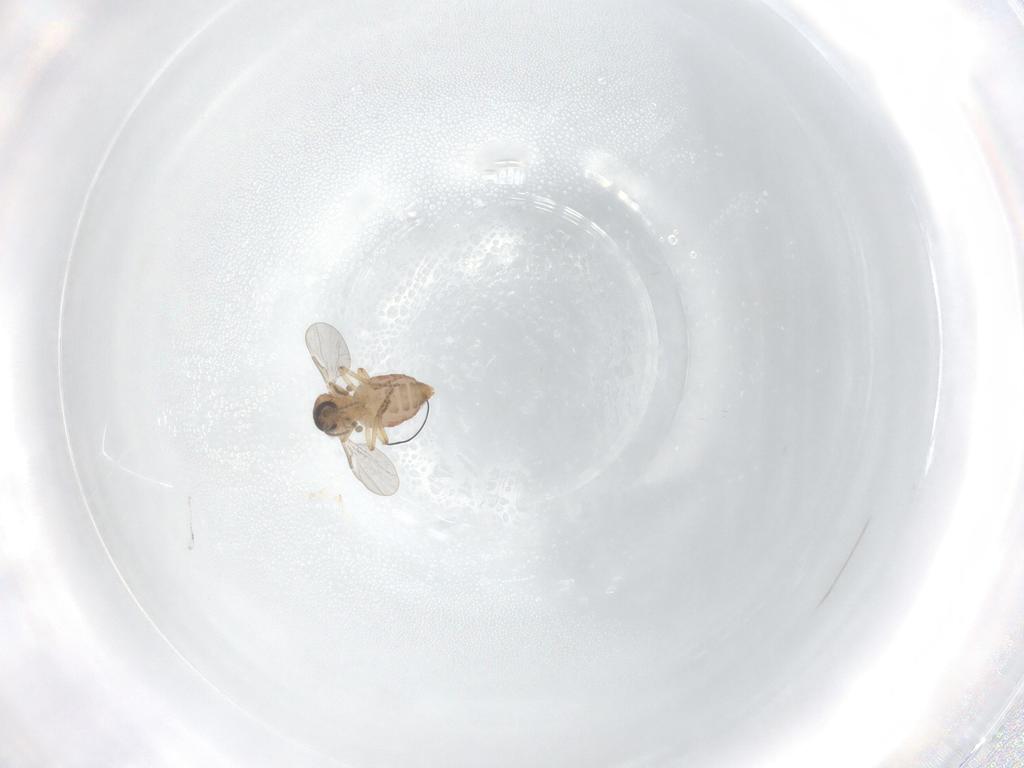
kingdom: Animalia
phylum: Arthropoda
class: Insecta
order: Diptera
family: Ceratopogonidae
